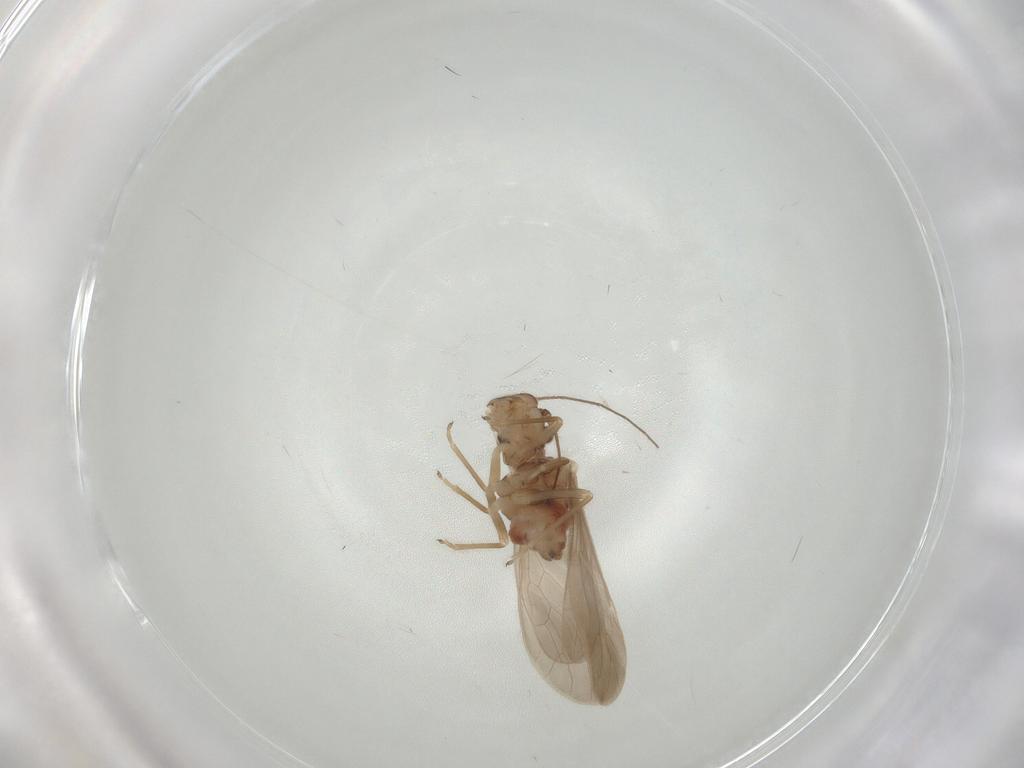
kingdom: Animalia
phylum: Arthropoda
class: Insecta
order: Psocodea
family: Caeciliusidae
